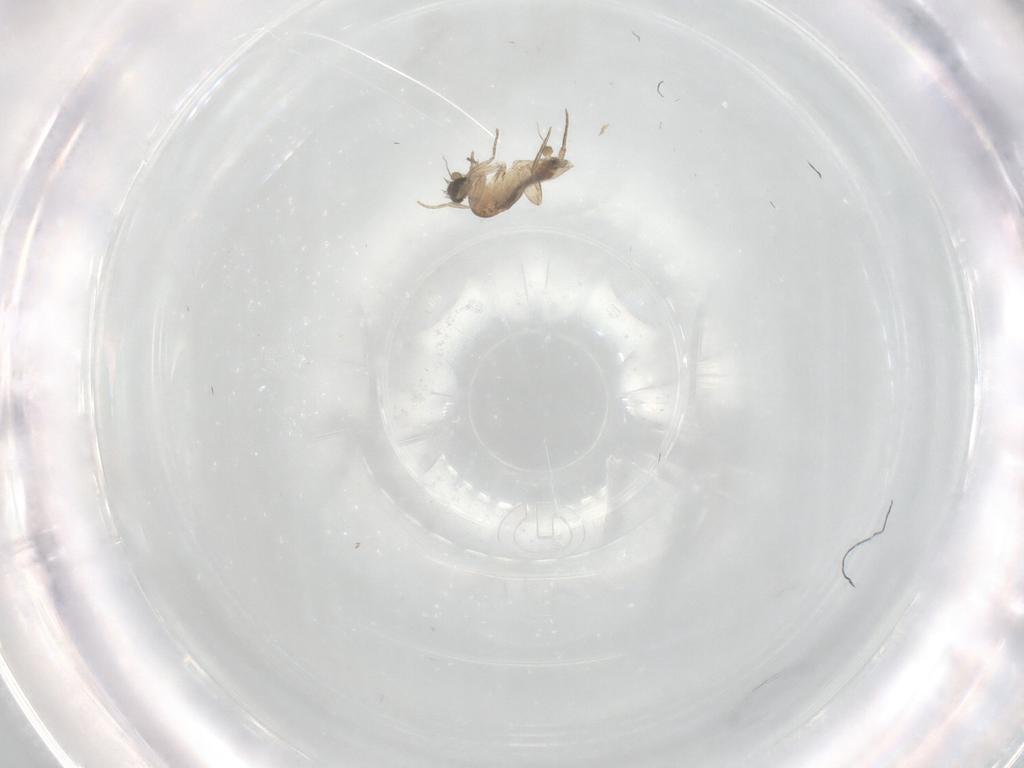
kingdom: Animalia
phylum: Arthropoda
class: Insecta
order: Diptera
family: Phoridae
